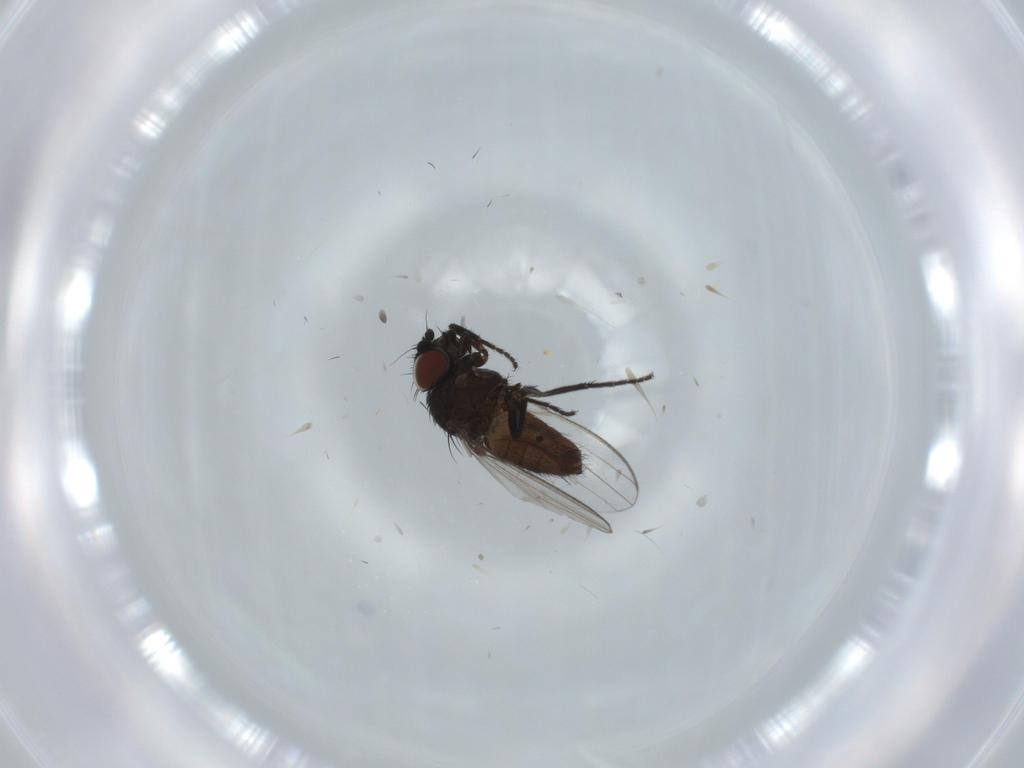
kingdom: Animalia
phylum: Arthropoda
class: Insecta
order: Diptera
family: Milichiidae
